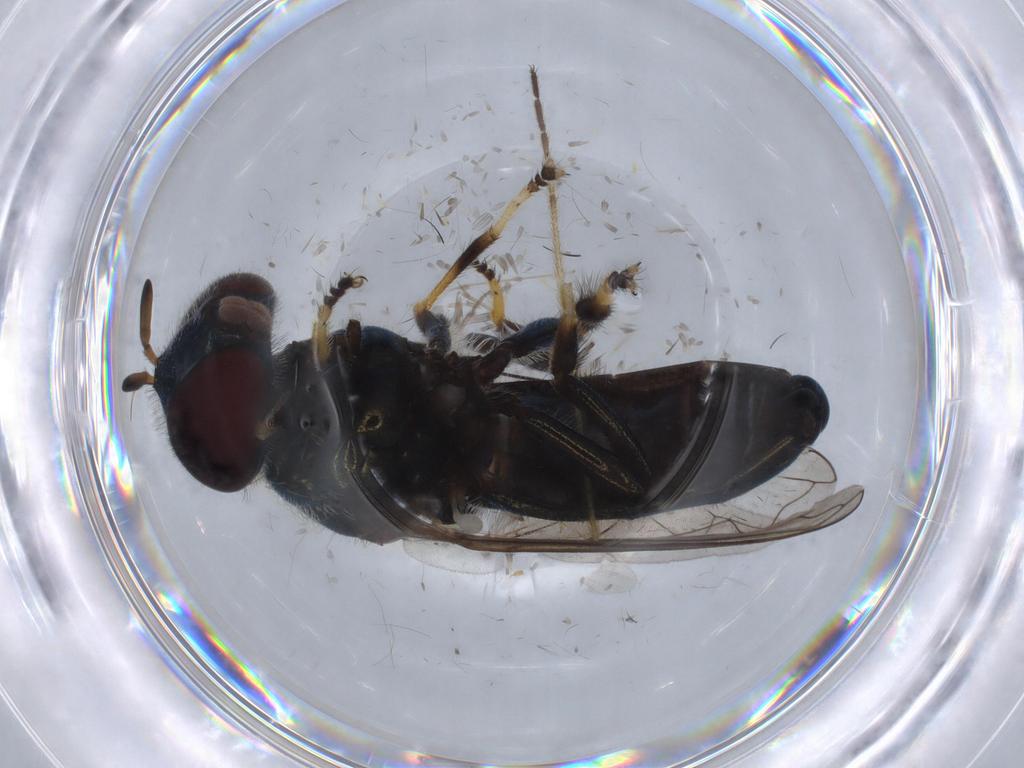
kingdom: Animalia
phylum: Arthropoda
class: Insecta
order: Diptera
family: Syrphidae
